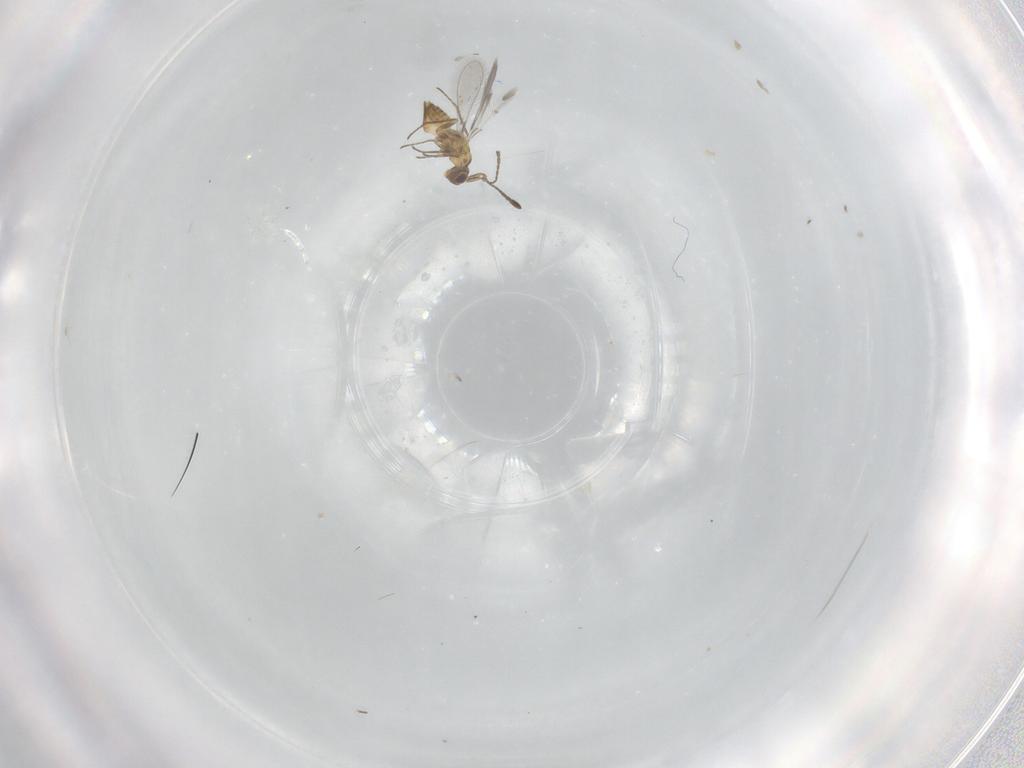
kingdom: Animalia
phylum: Arthropoda
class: Insecta
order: Hymenoptera
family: Eulophidae
